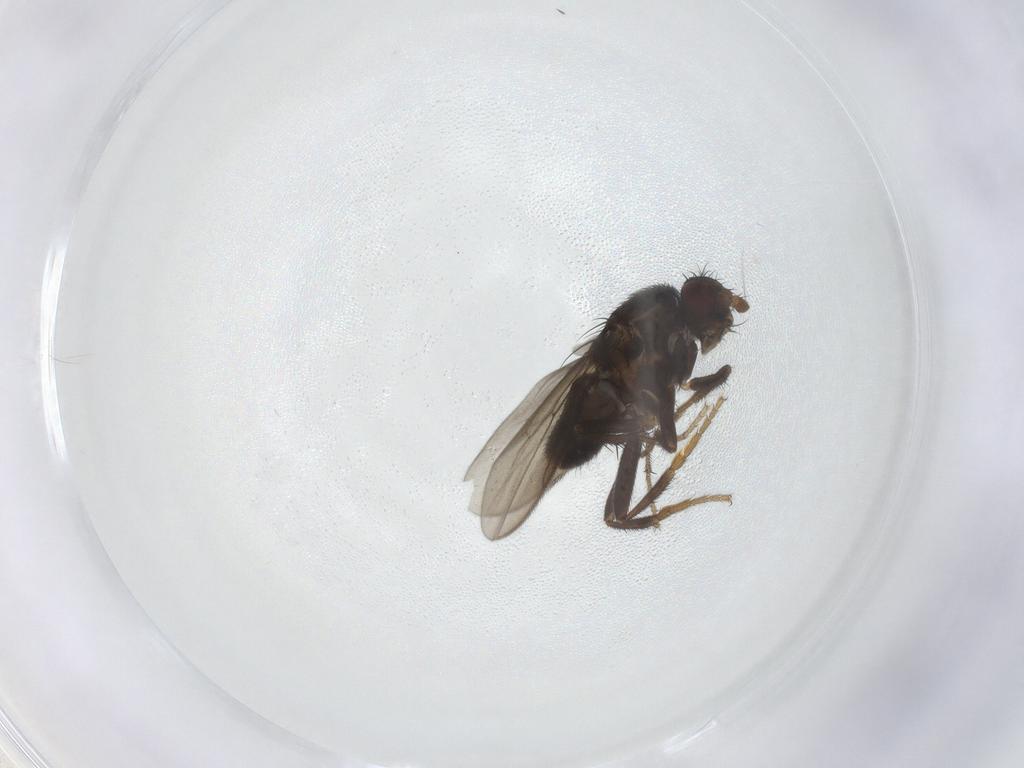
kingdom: Animalia
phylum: Arthropoda
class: Insecta
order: Diptera
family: Sphaeroceridae
